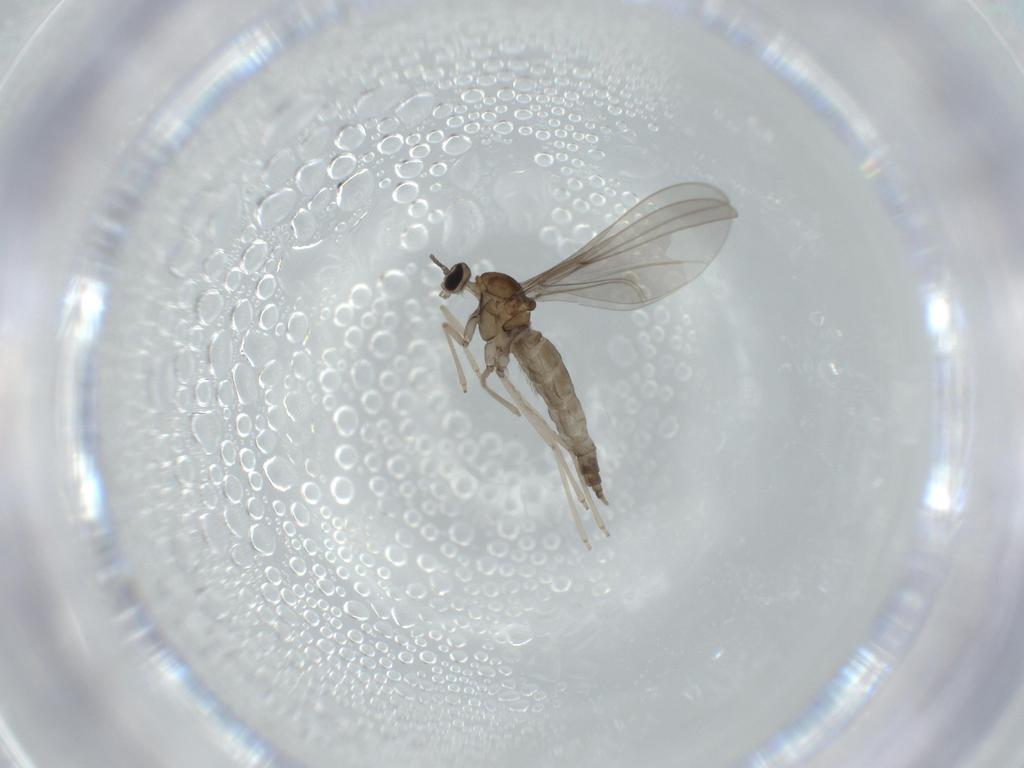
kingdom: Animalia
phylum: Arthropoda
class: Insecta
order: Diptera
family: Cecidomyiidae
